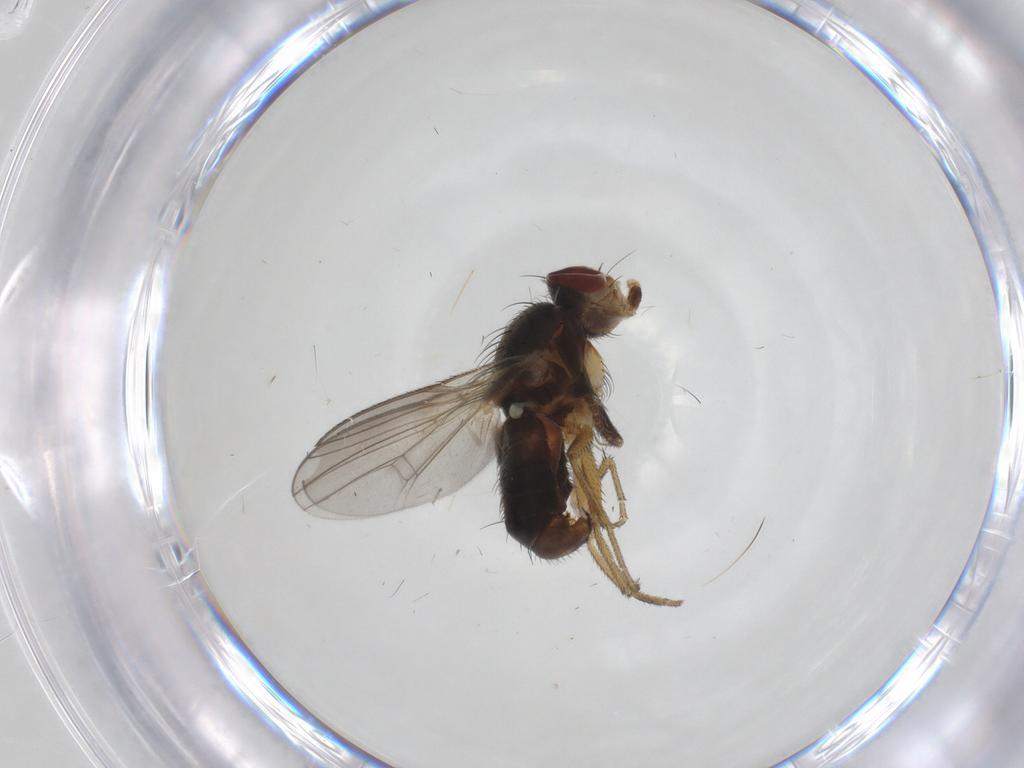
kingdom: Animalia
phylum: Arthropoda
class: Insecta
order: Diptera
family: Heleomyzidae
